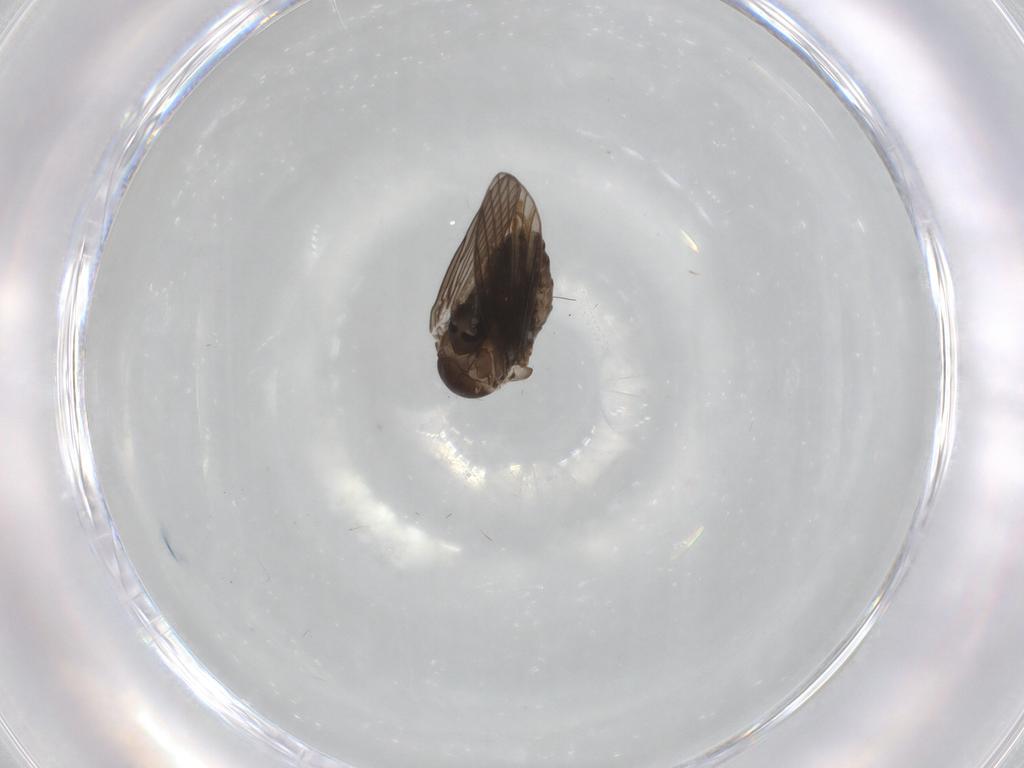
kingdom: Animalia
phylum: Arthropoda
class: Insecta
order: Diptera
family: Psychodidae
